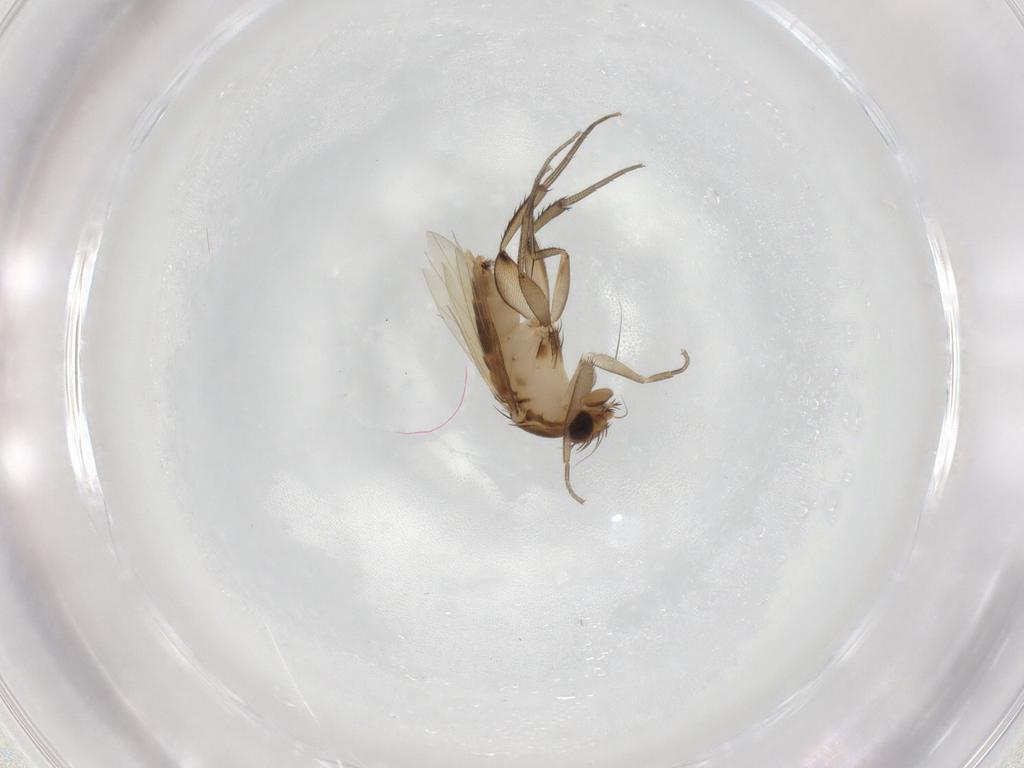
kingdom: Animalia
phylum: Arthropoda
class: Insecta
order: Diptera
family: Phoridae
